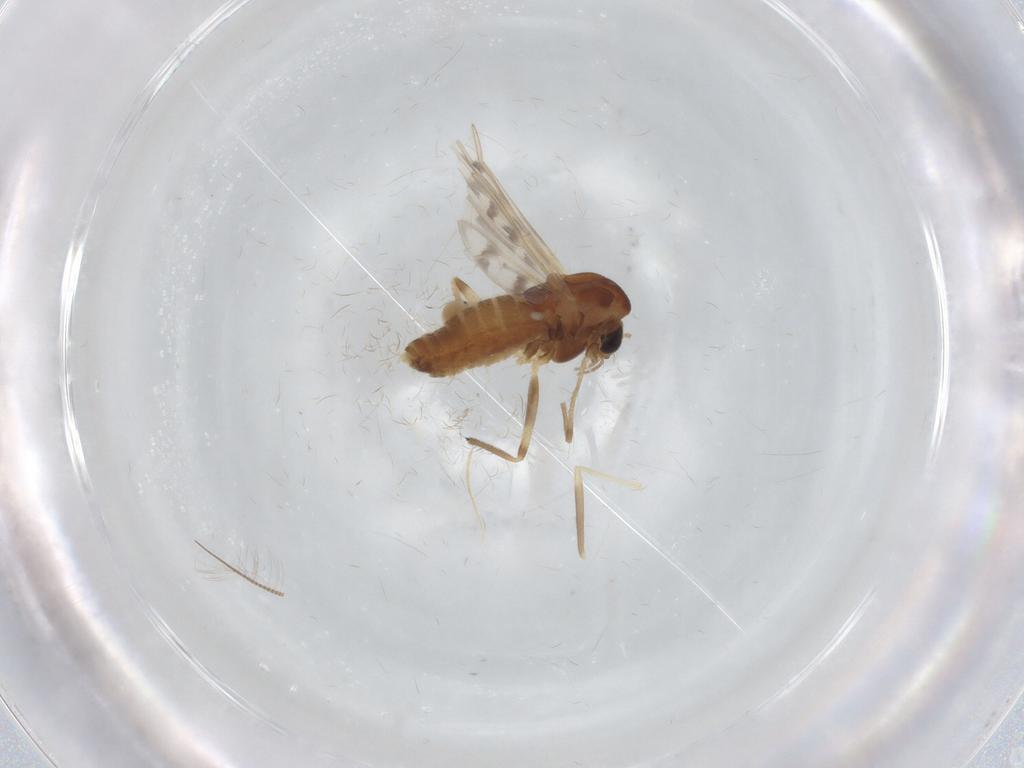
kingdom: Animalia
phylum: Arthropoda
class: Insecta
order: Diptera
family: Chironomidae
